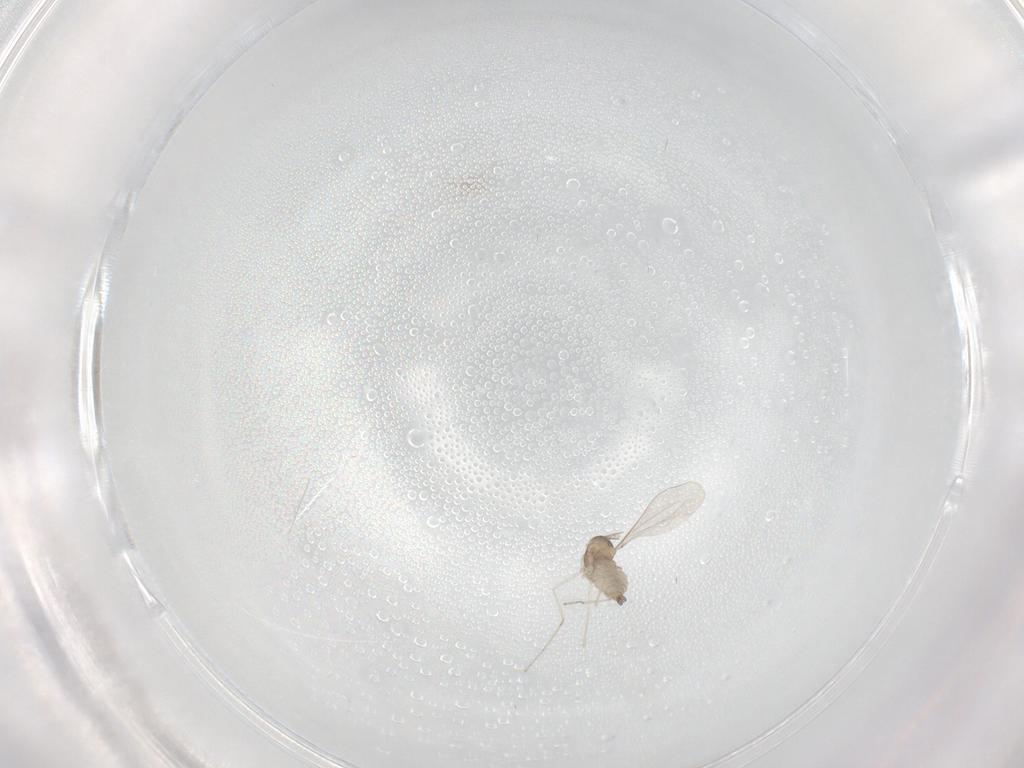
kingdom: Animalia
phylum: Arthropoda
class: Insecta
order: Diptera
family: Cecidomyiidae
